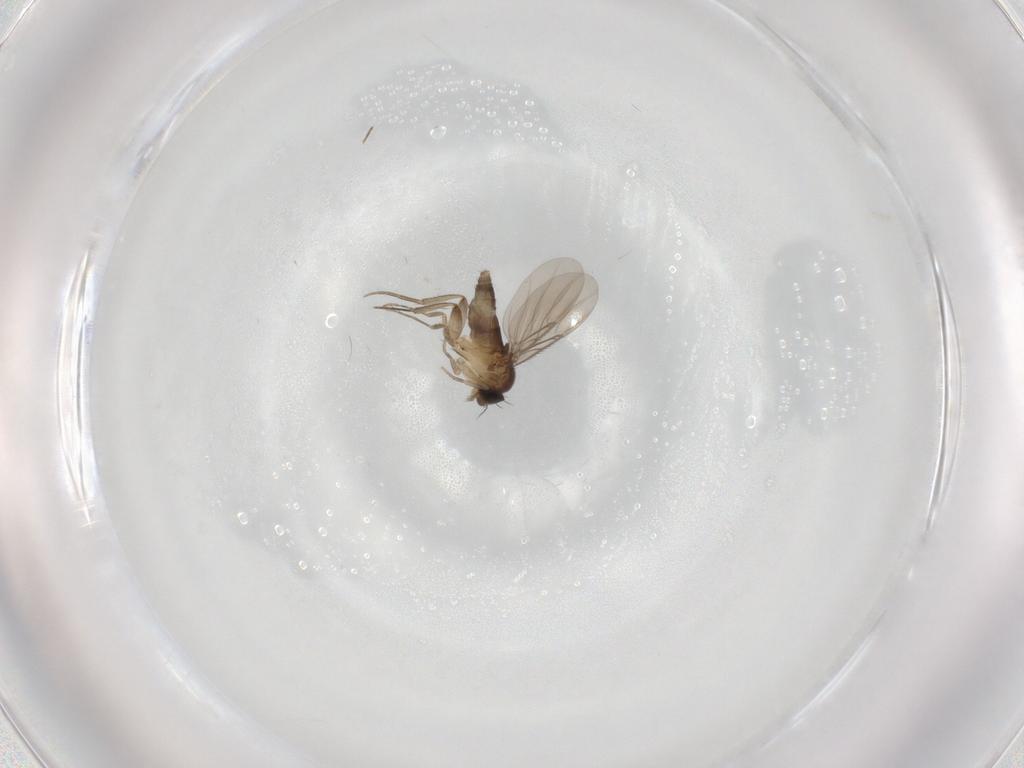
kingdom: Animalia
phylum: Arthropoda
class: Insecta
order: Diptera
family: Phoridae
